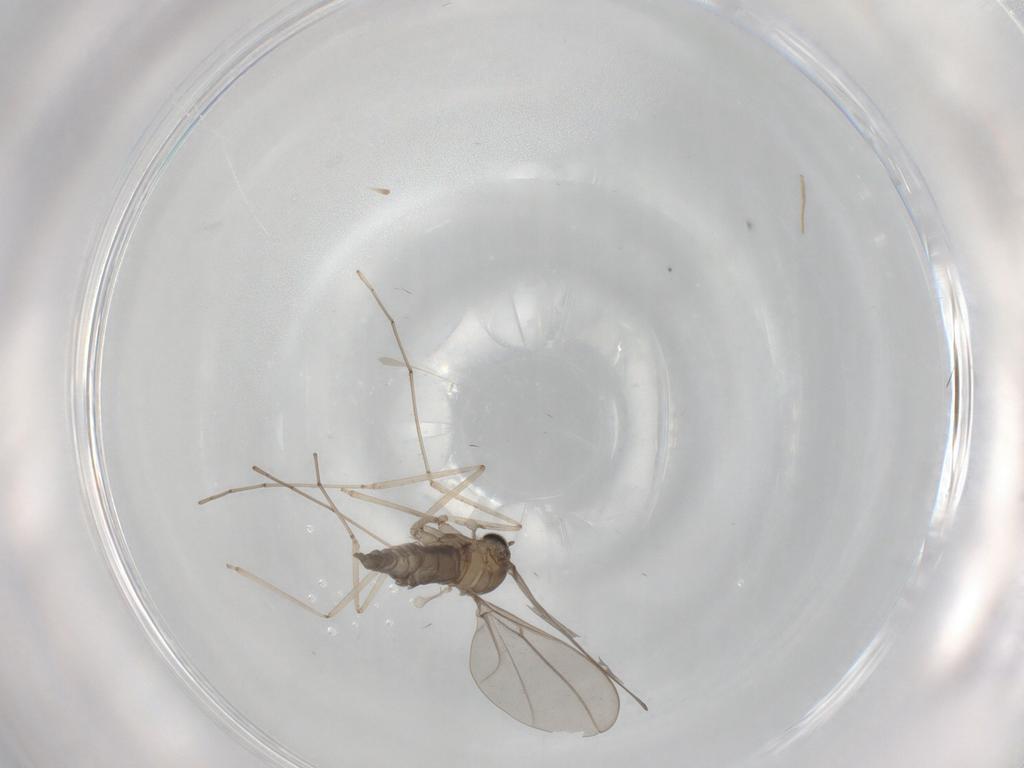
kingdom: Animalia
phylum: Arthropoda
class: Insecta
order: Diptera
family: Cecidomyiidae
